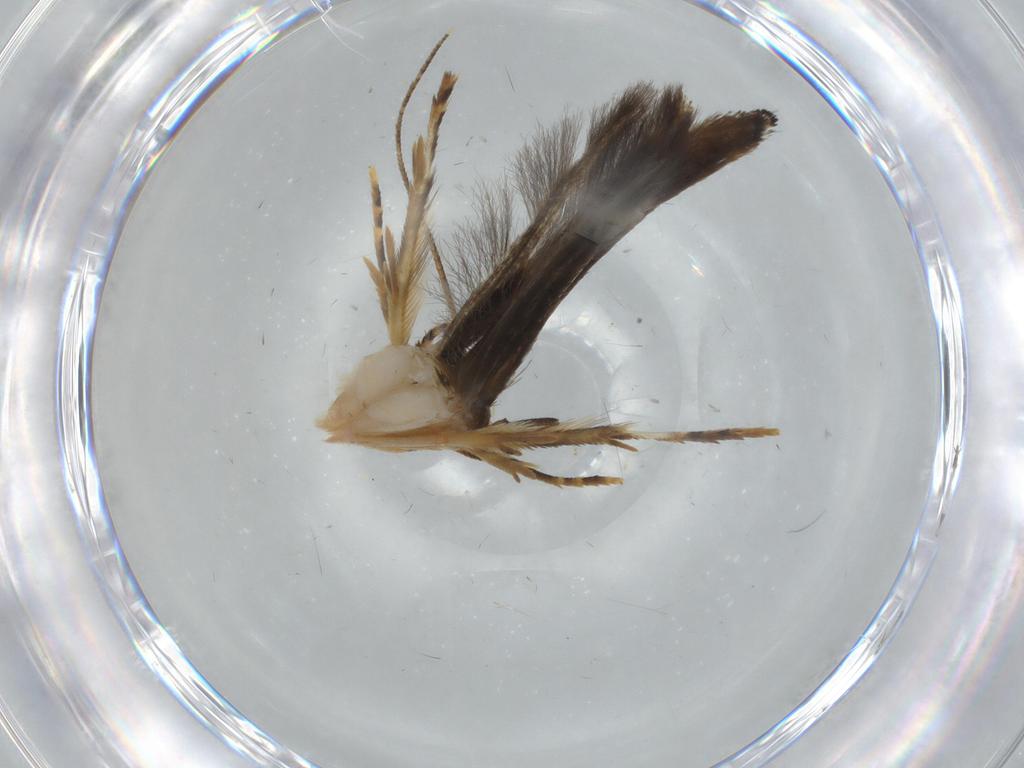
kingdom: Animalia
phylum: Arthropoda
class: Insecta
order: Lepidoptera
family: Momphidae
